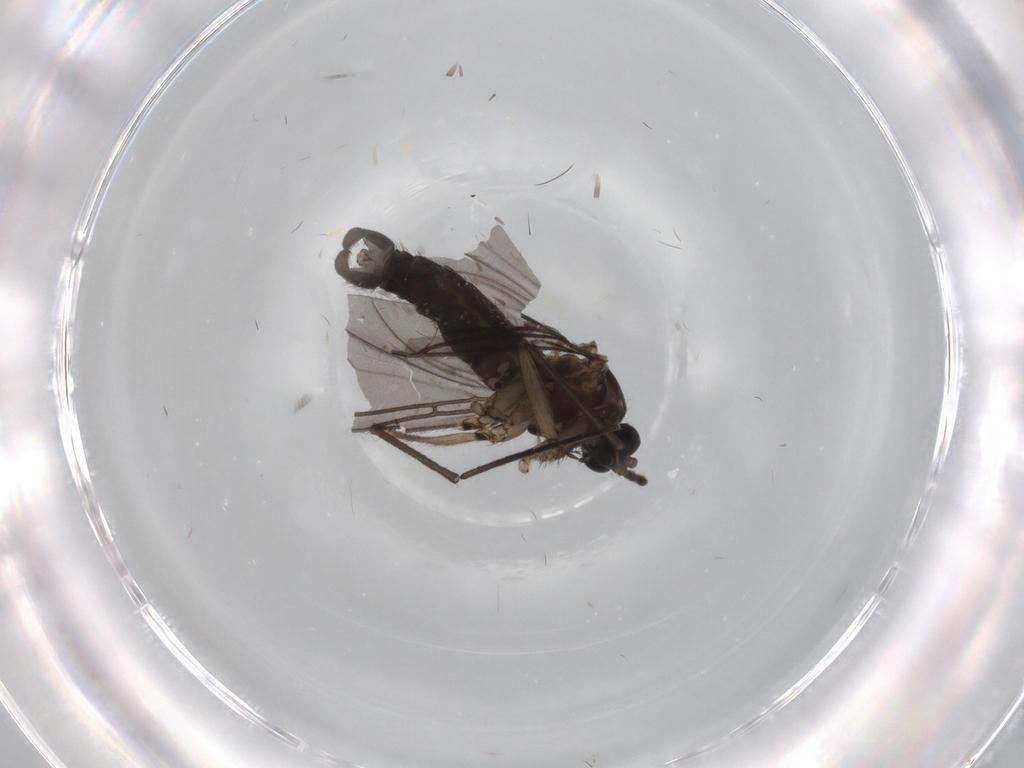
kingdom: Animalia
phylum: Arthropoda
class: Insecta
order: Diptera
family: Sciaridae
